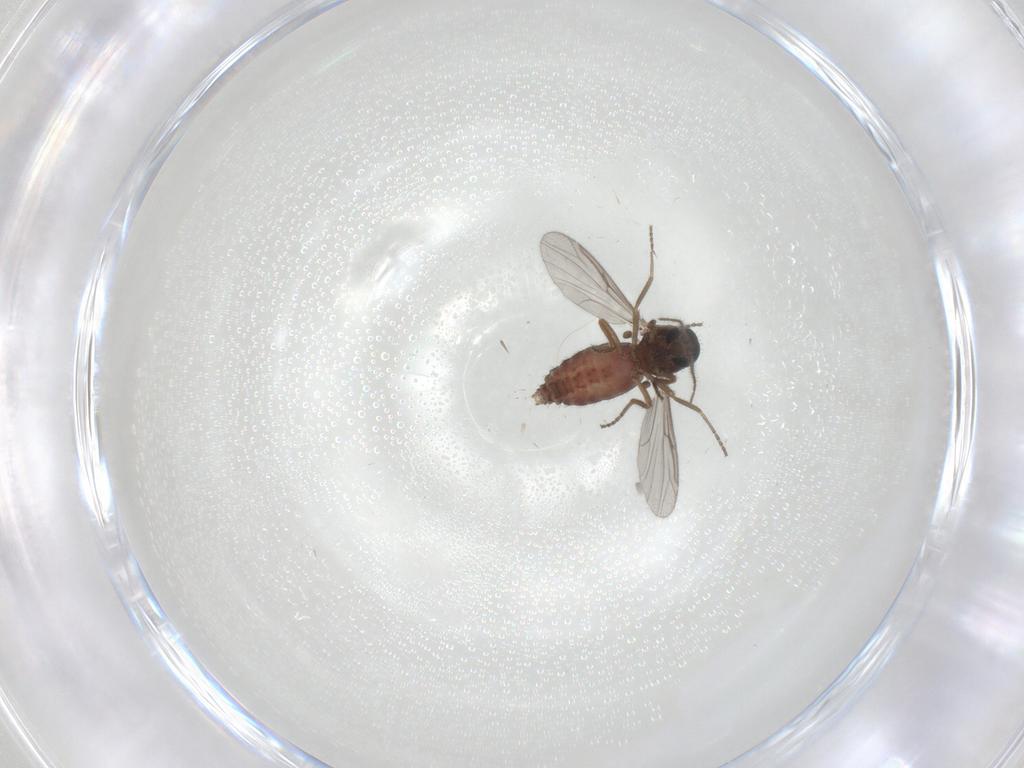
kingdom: Animalia
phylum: Arthropoda
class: Insecta
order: Diptera
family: Ceratopogonidae
